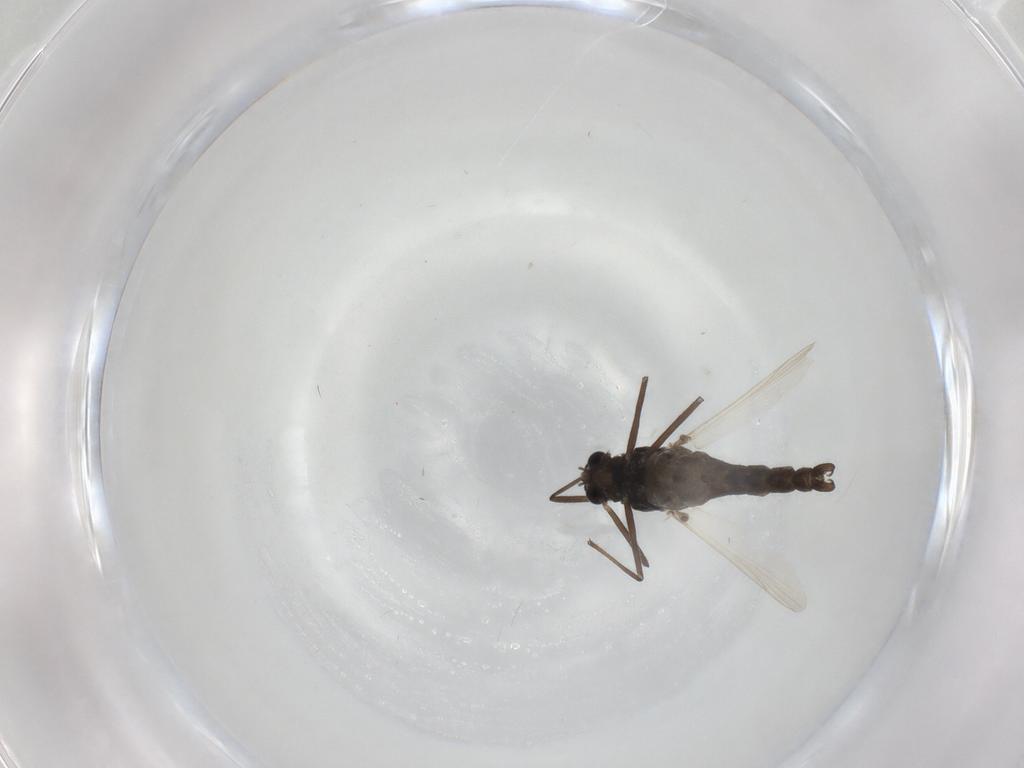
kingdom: Animalia
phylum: Arthropoda
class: Insecta
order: Diptera
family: Chironomidae
